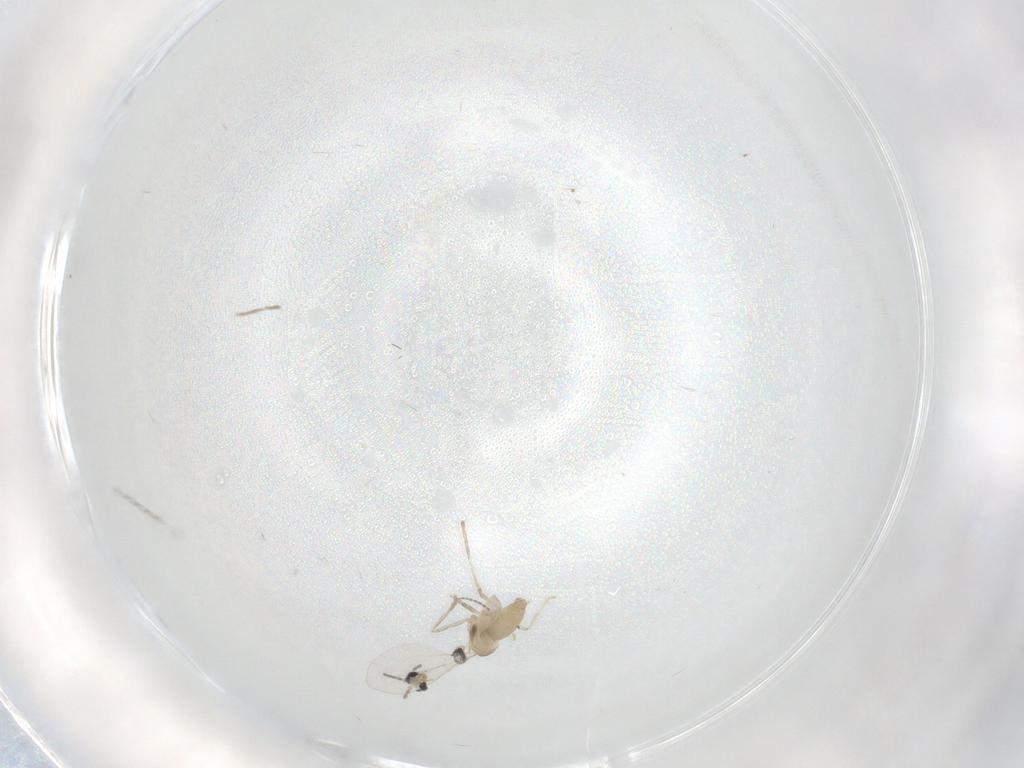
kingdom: Animalia
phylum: Arthropoda
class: Insecta
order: Diptera
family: Cecidomyiidae
